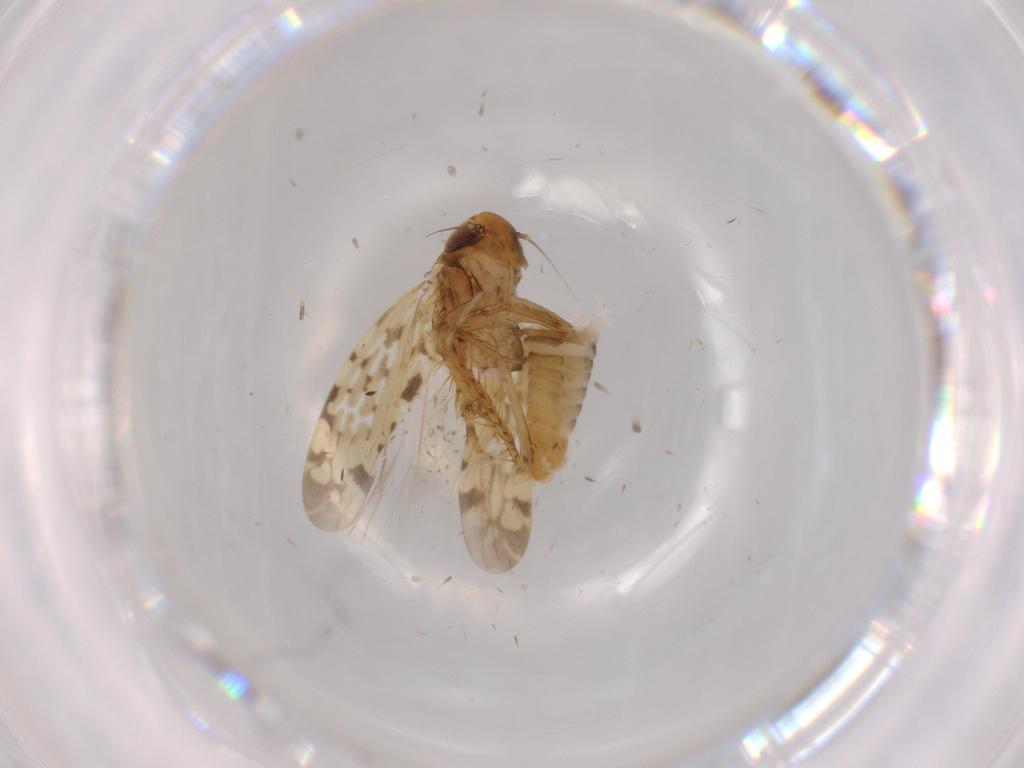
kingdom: Animalia
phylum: Arthropoda
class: Insecta
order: Hemiptera
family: Cicadellidae
